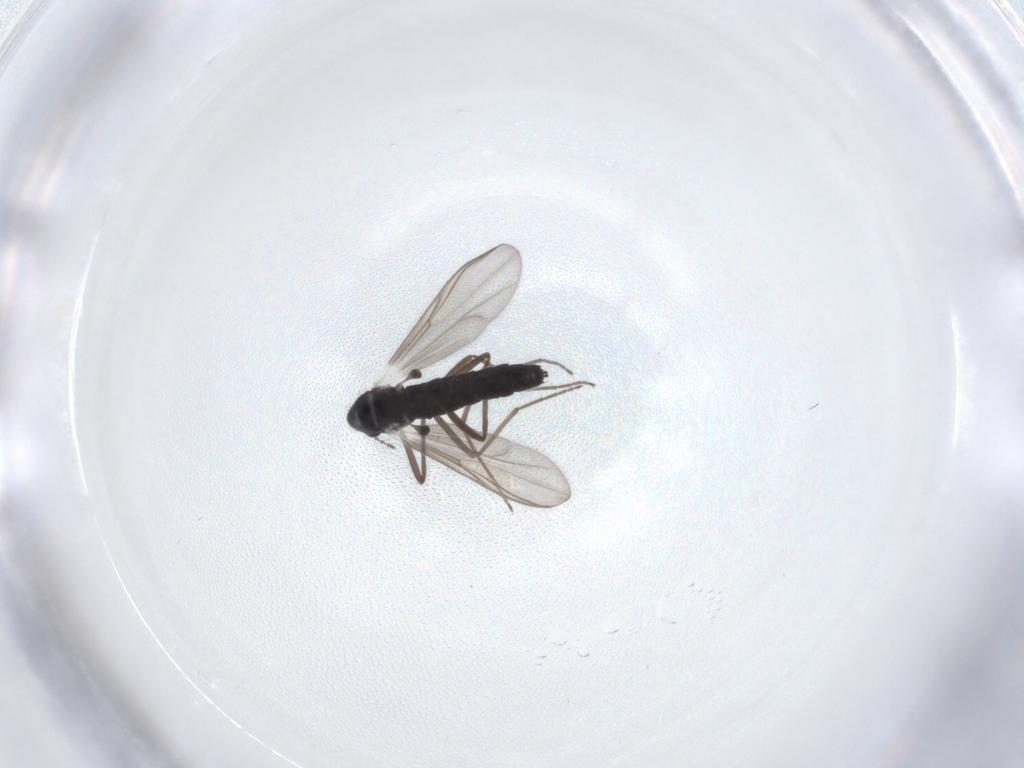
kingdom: Animalia
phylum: Arthropoda
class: Insecta
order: Diptera
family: Chironomidae
